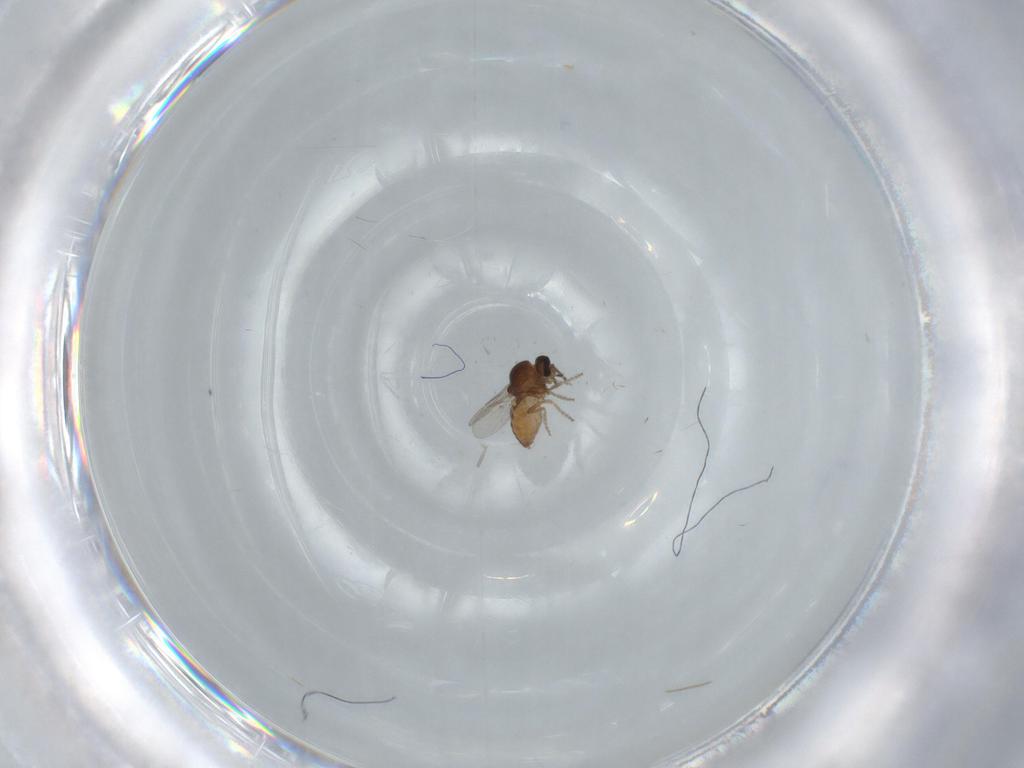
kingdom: Animalia
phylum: Arthropoda
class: Insecta
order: Diptera
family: Ceratopogonidae
